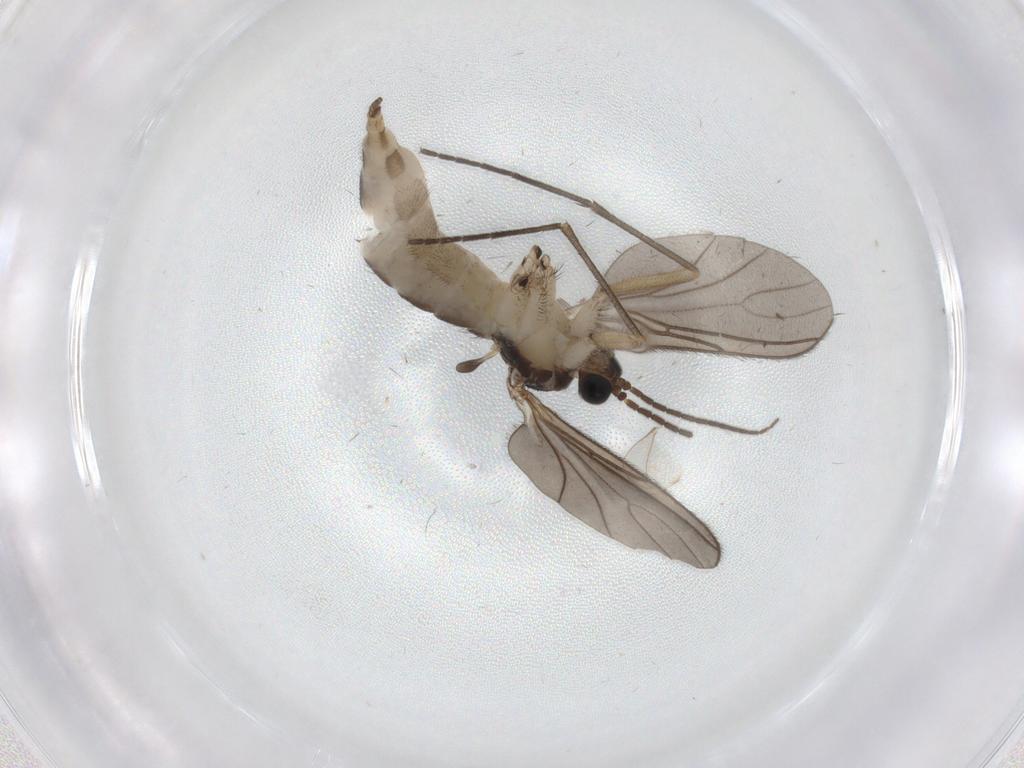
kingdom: Animalia
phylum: Arthropoda
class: Insecta
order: Diptera
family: Sciaridae
